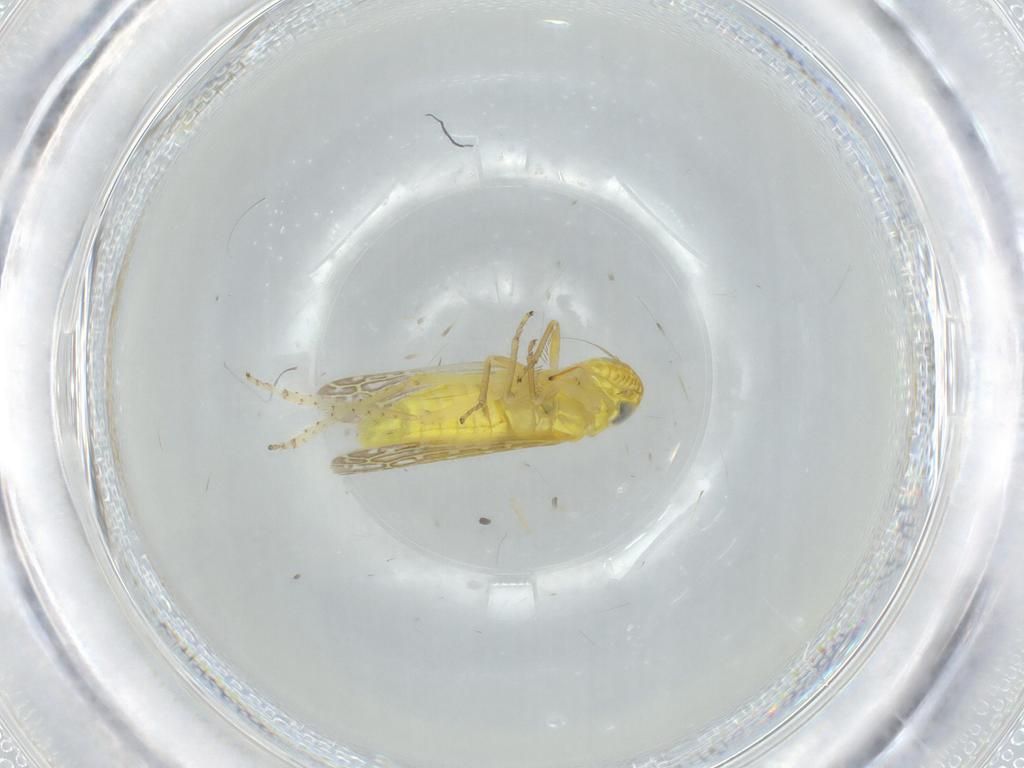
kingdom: Animalia
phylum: Arthropoda
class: Insecta
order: Hemiptera
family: Cicadellidae
